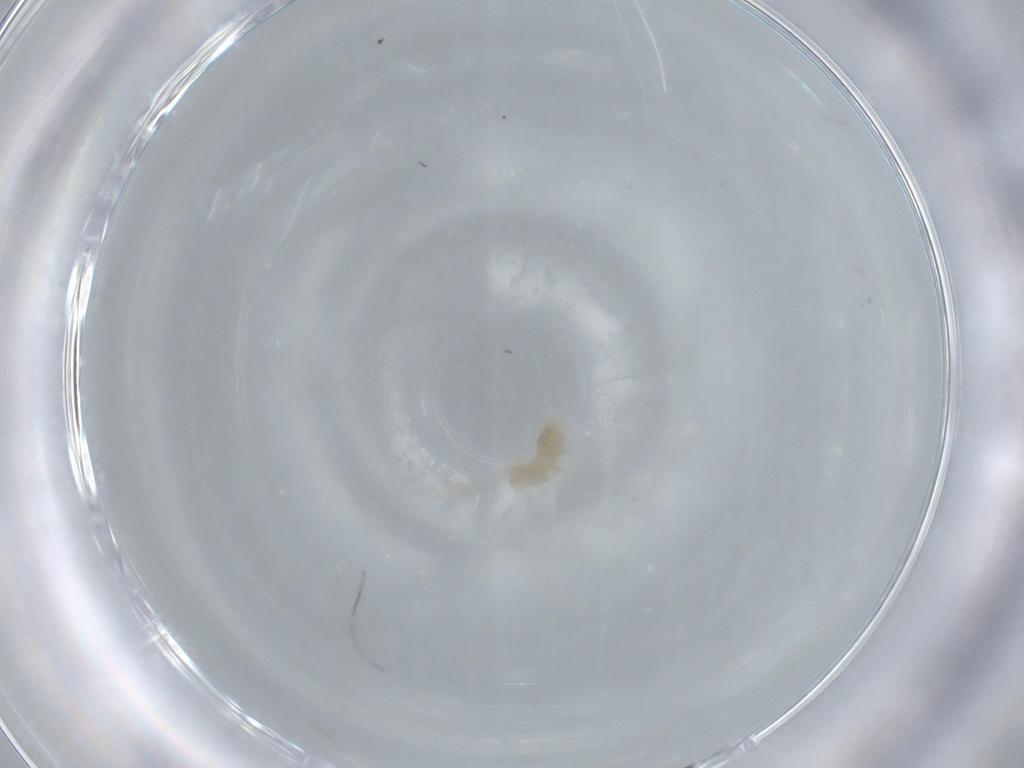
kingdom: Animalia
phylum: Arthropoda
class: Insecta
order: Diptera
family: Cecidomyiidae
